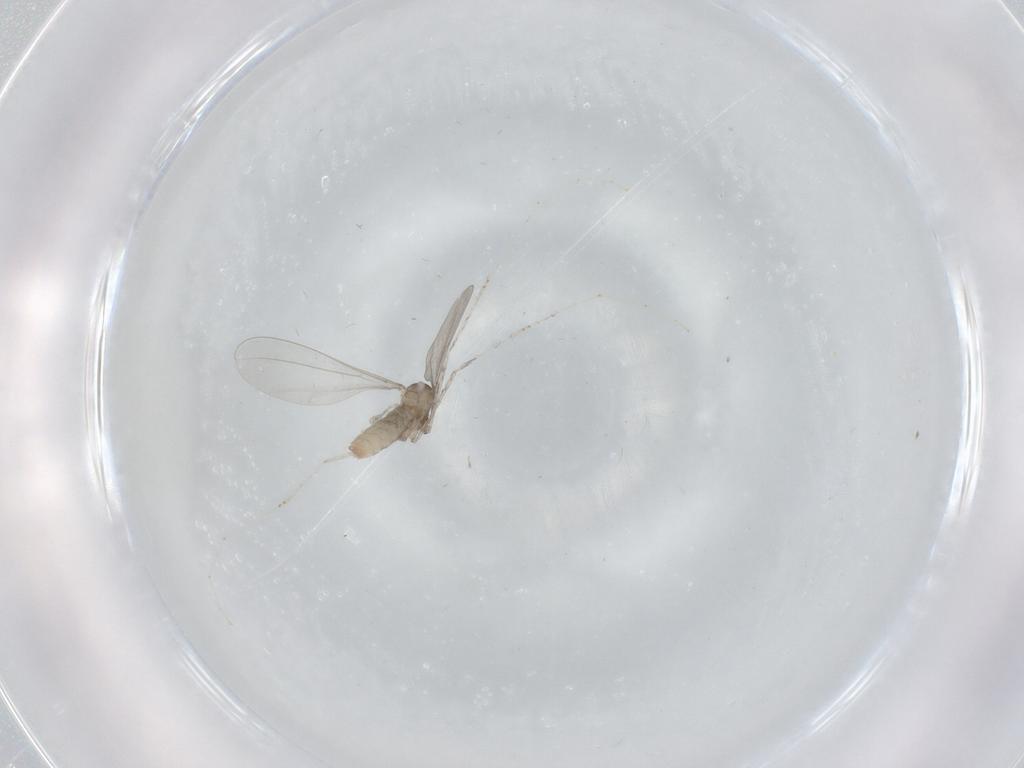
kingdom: Animalia
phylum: Arthropoda
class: Insecta
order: Diptera
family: Cecidomyiidae
